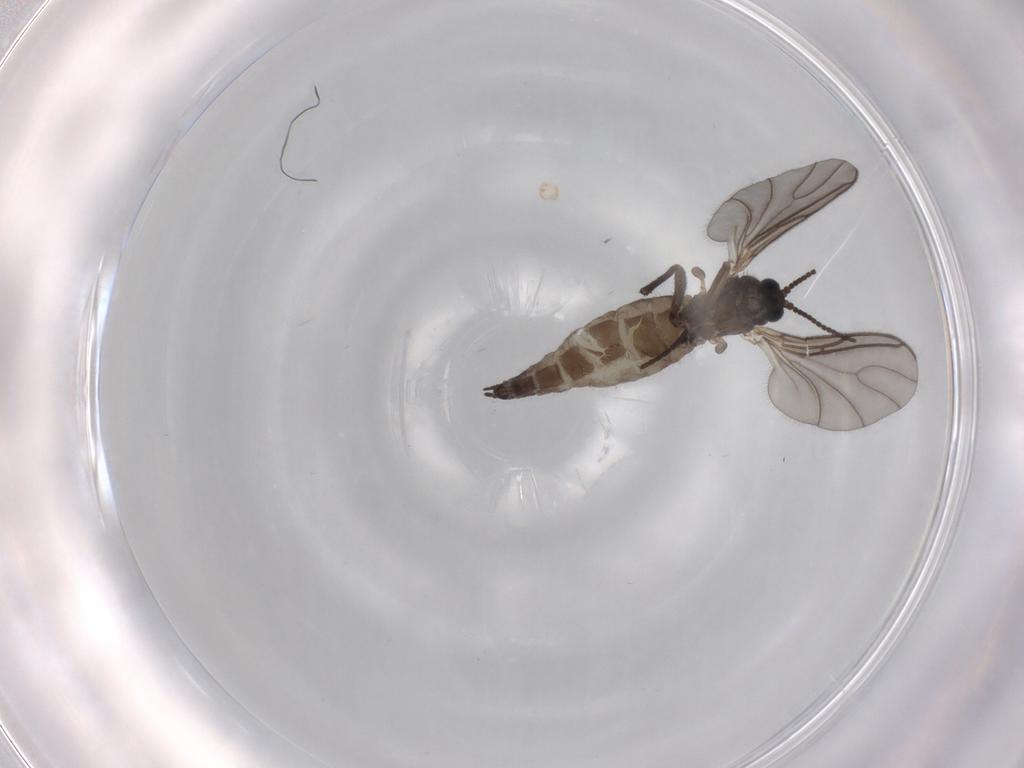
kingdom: Animalia
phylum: Arthropoda
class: Insecta
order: Diptera
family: Sciaridae
